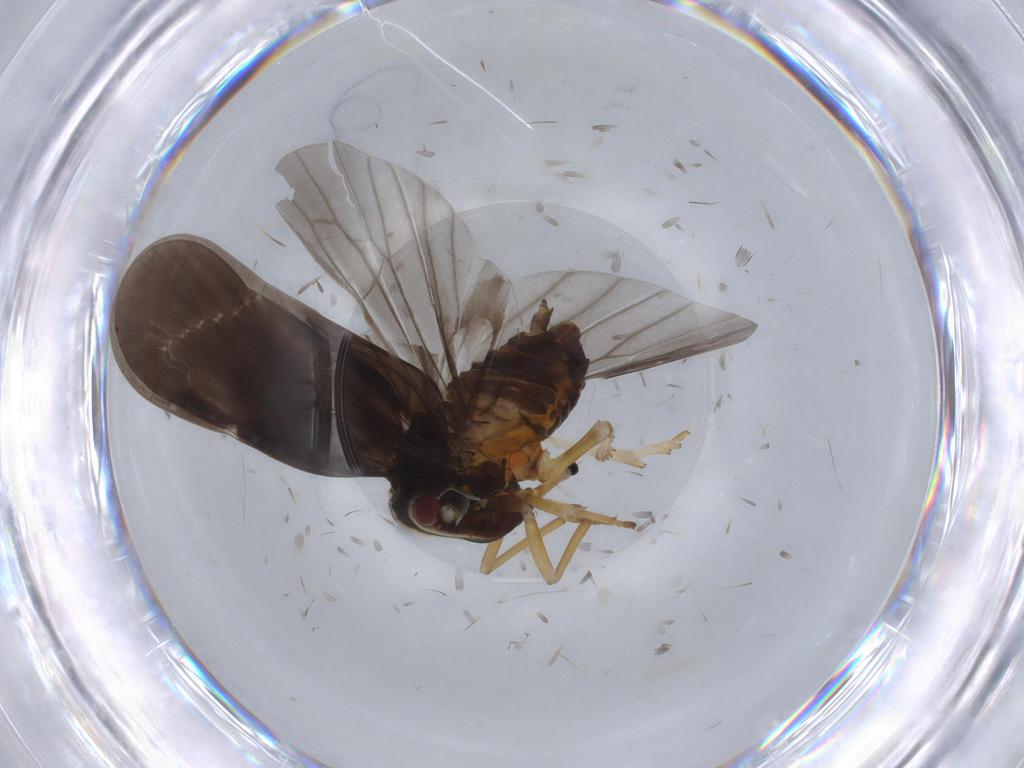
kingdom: Animalia
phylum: Arthropoda
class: Insecta
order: Hemiptera
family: Derbidae
